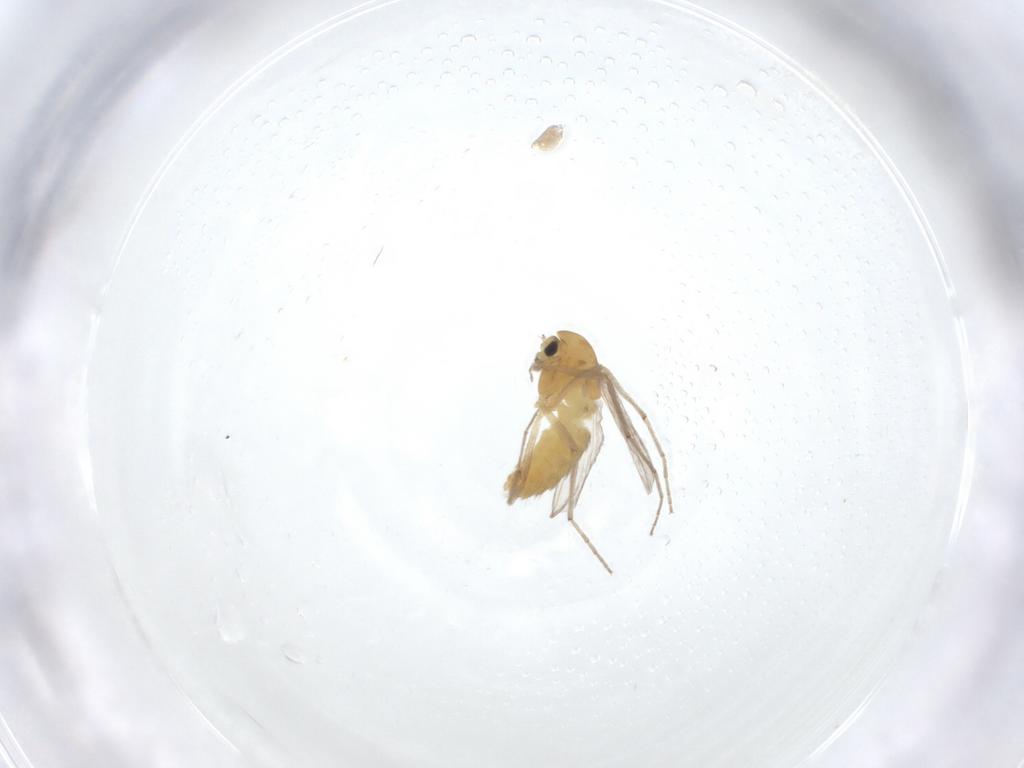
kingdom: Animalia
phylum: Arthropoda
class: Insecta
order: Diptera
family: Chironomidae
